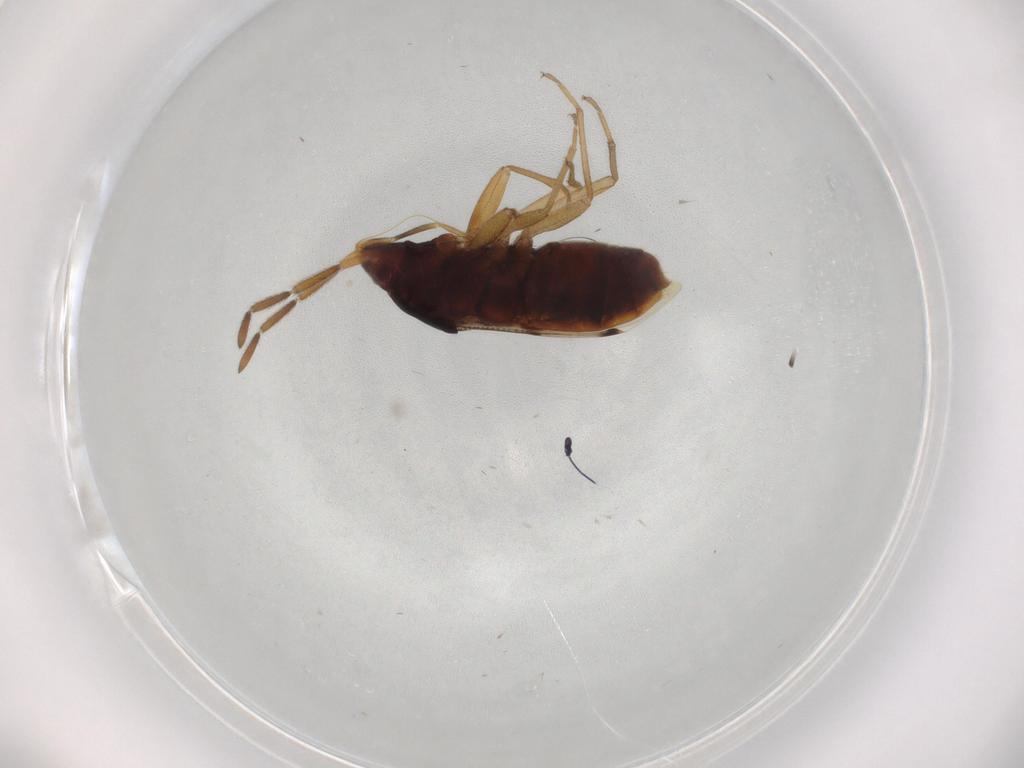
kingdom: Animalia
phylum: Arthropoda
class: Insecta
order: Hemiptera
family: Rhyparochromidae
